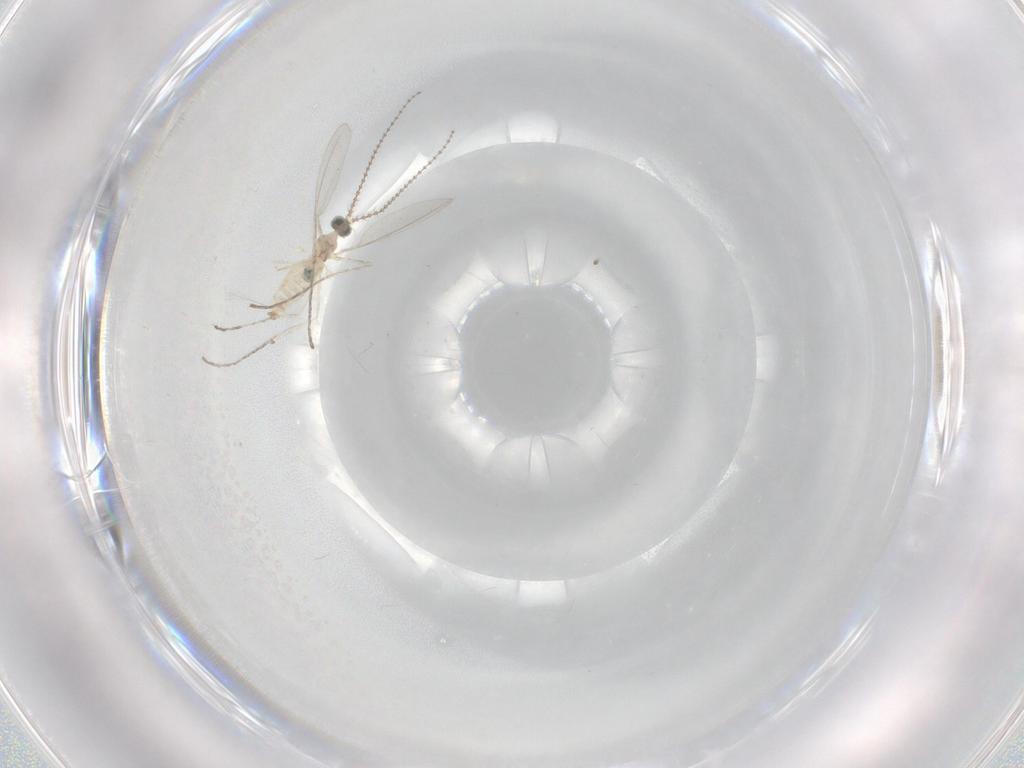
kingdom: Animalia
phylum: Arthropoda
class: Insecta
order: Diptera
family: Cecidomyiidae
